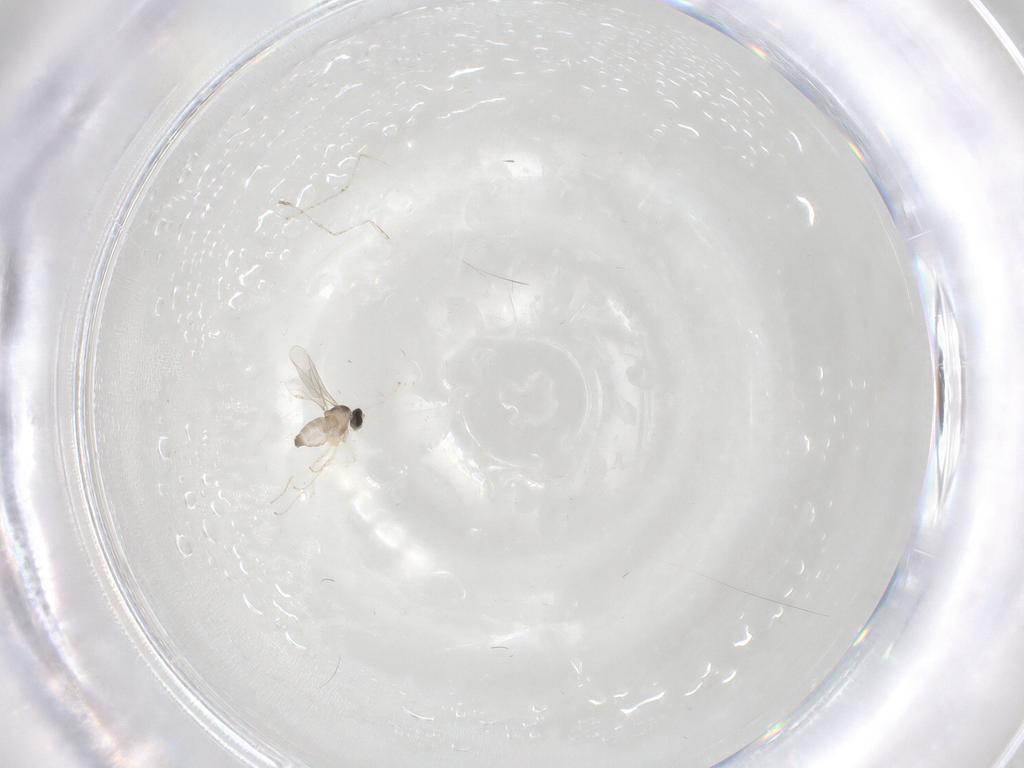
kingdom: Animalia
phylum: Arthropoda
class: Insecta
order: Diptera
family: Cecidomyiidae
